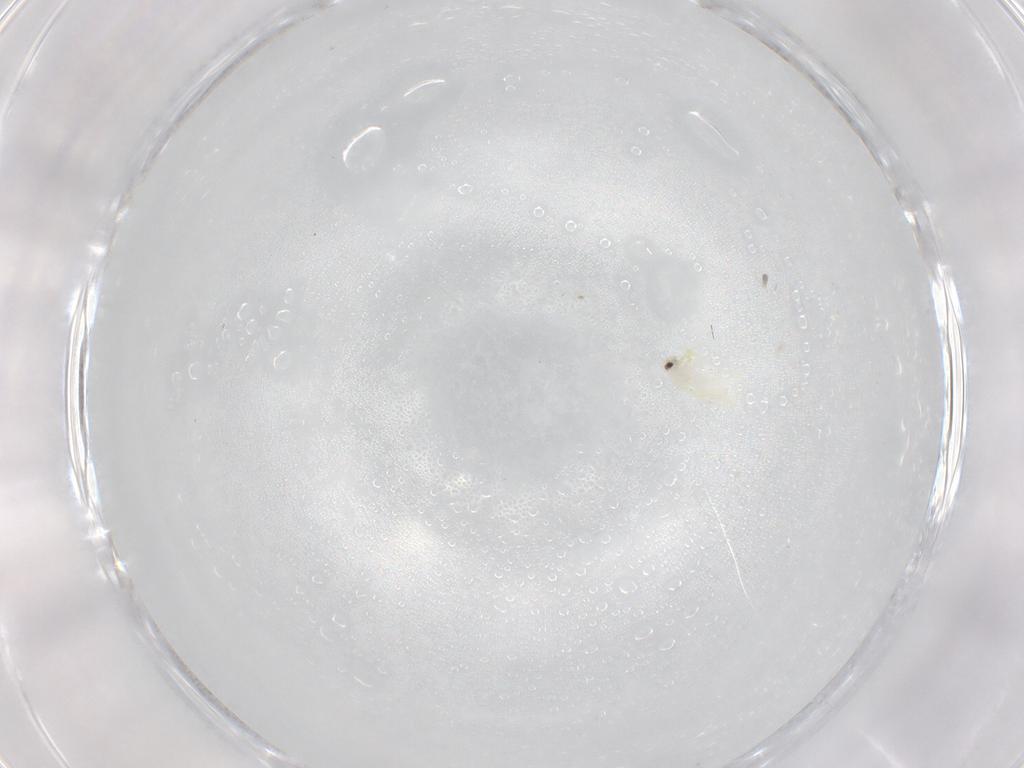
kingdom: Animalia
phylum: Arthropoda
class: Insecta
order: Hemiptera
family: Aleyrodidae
